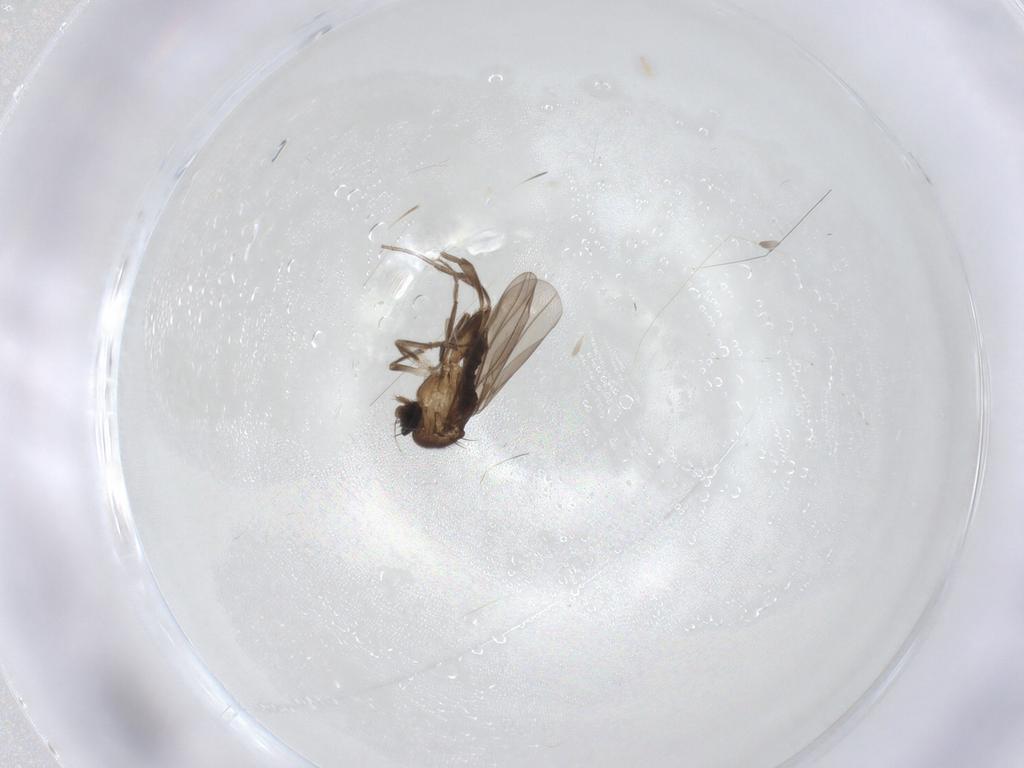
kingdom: Animalia
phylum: Arthropoda
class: Insecta
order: Diptera
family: Cecidomyiidae
